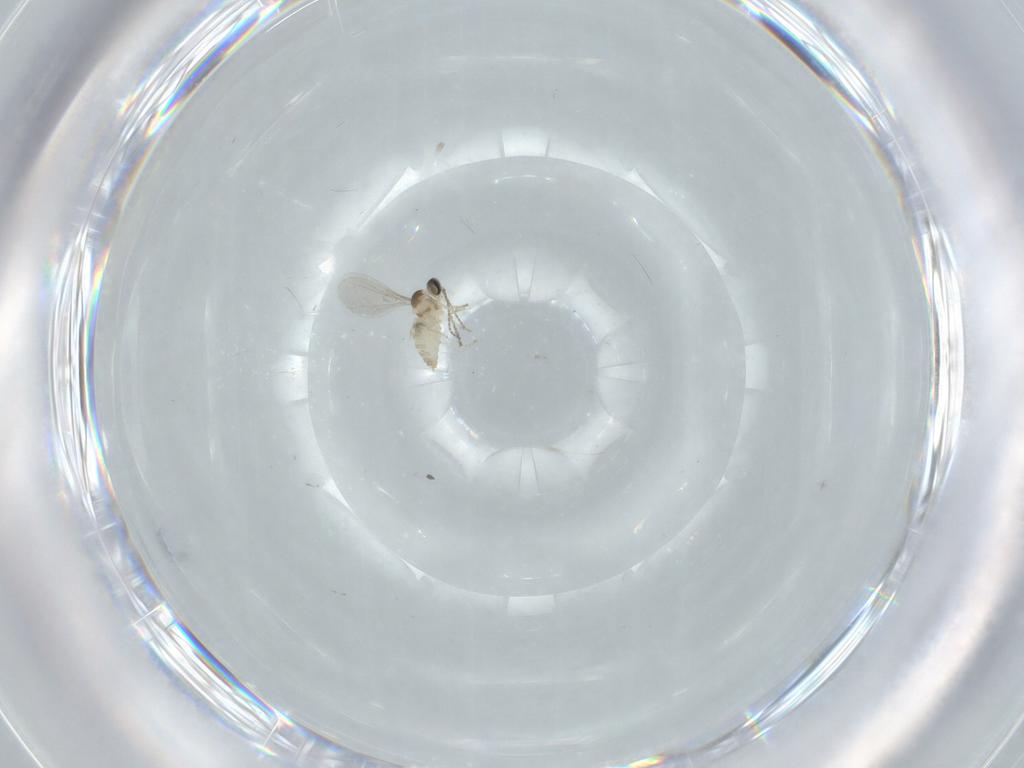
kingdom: Animalia
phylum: Arthropoda
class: Insecta
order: Diptera
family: Cecidomyiidae
